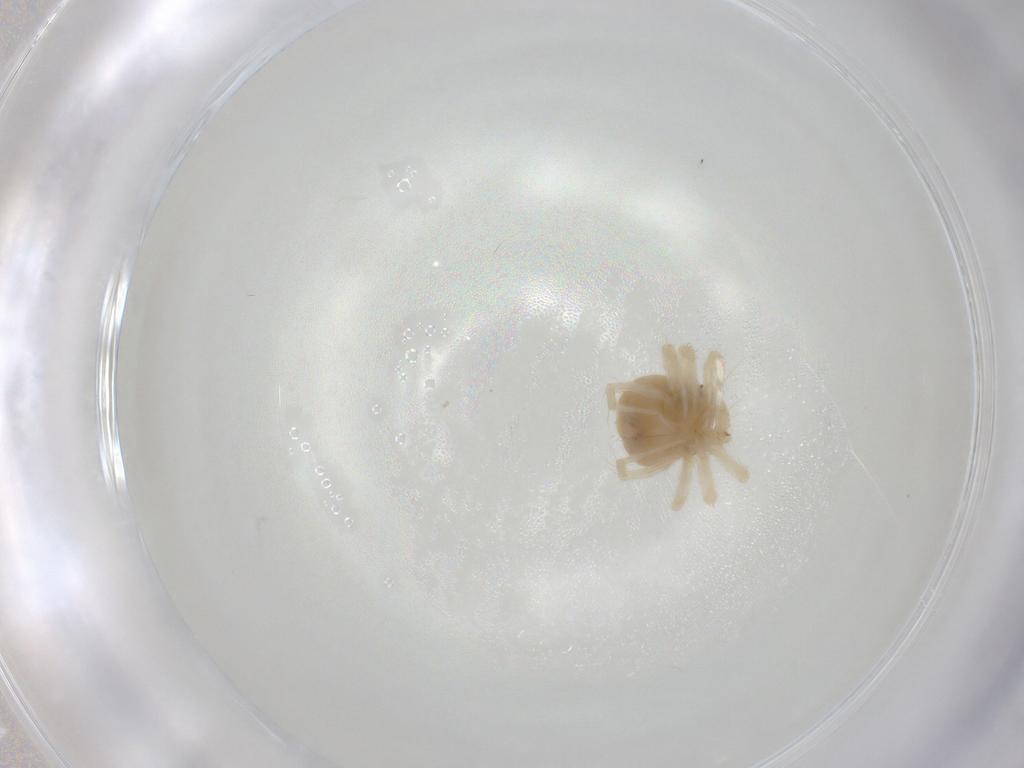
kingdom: Animalia
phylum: Arthropoda
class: Arachnida
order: Trombidiformes
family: Anystidae
